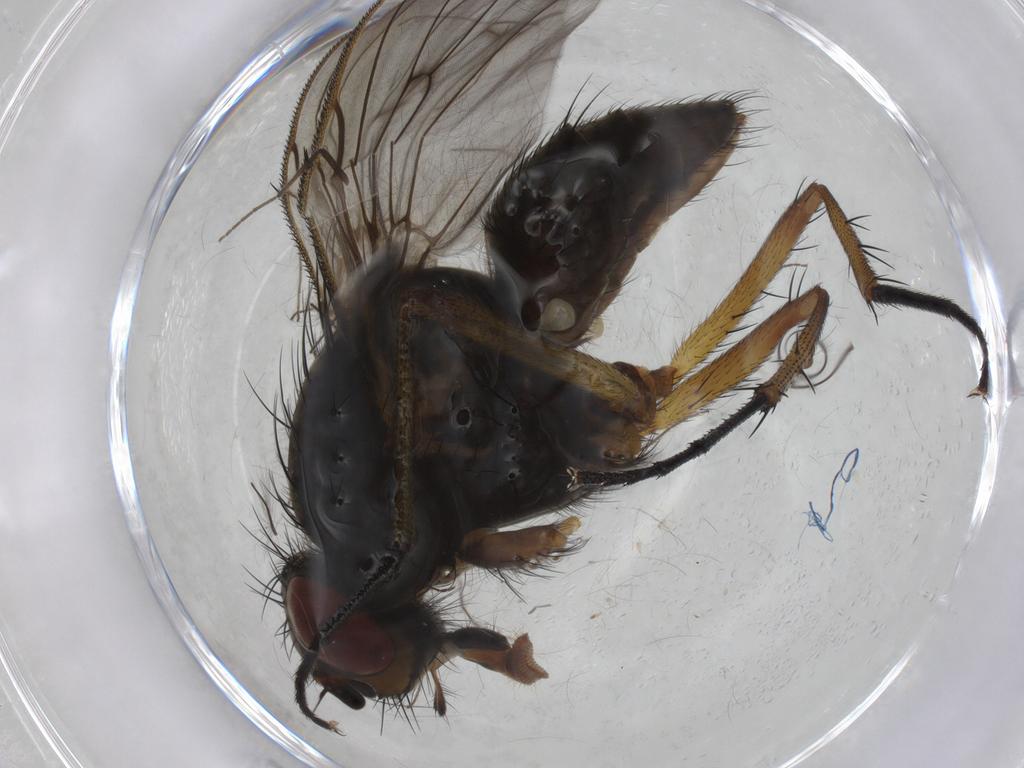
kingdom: Animalia
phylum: Arthropoda
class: Insecta
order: Diptera
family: Anthomyiidae
